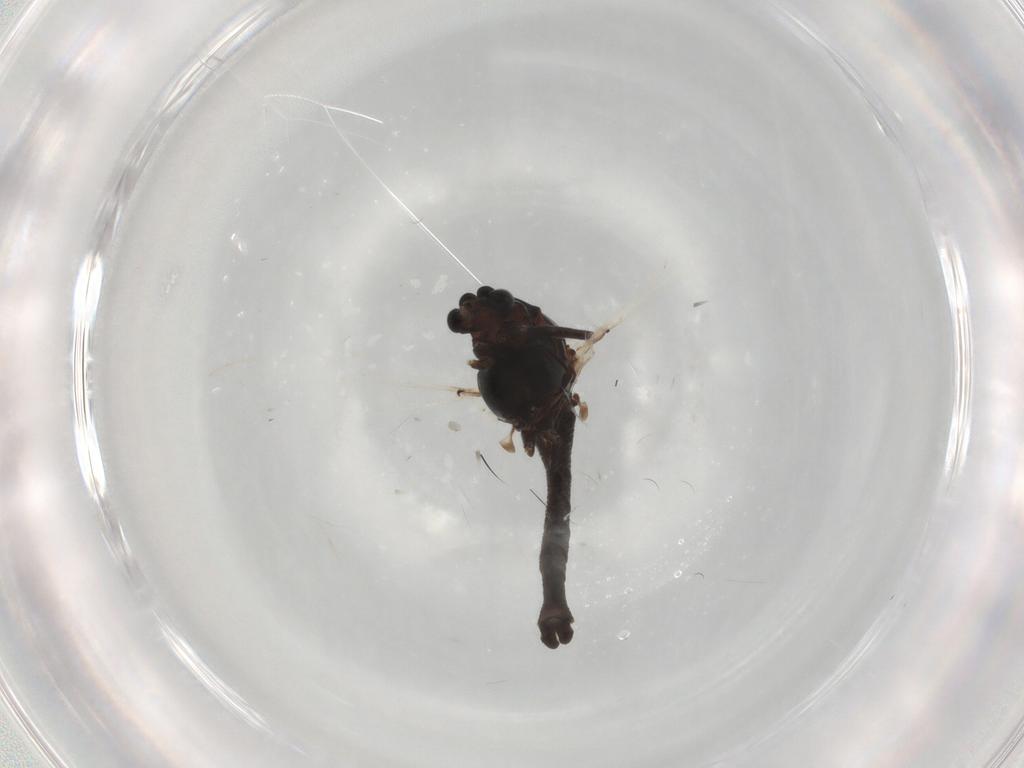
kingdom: Animalia
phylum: Arthropoda
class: Insecta
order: Diptera
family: Chironomidae
